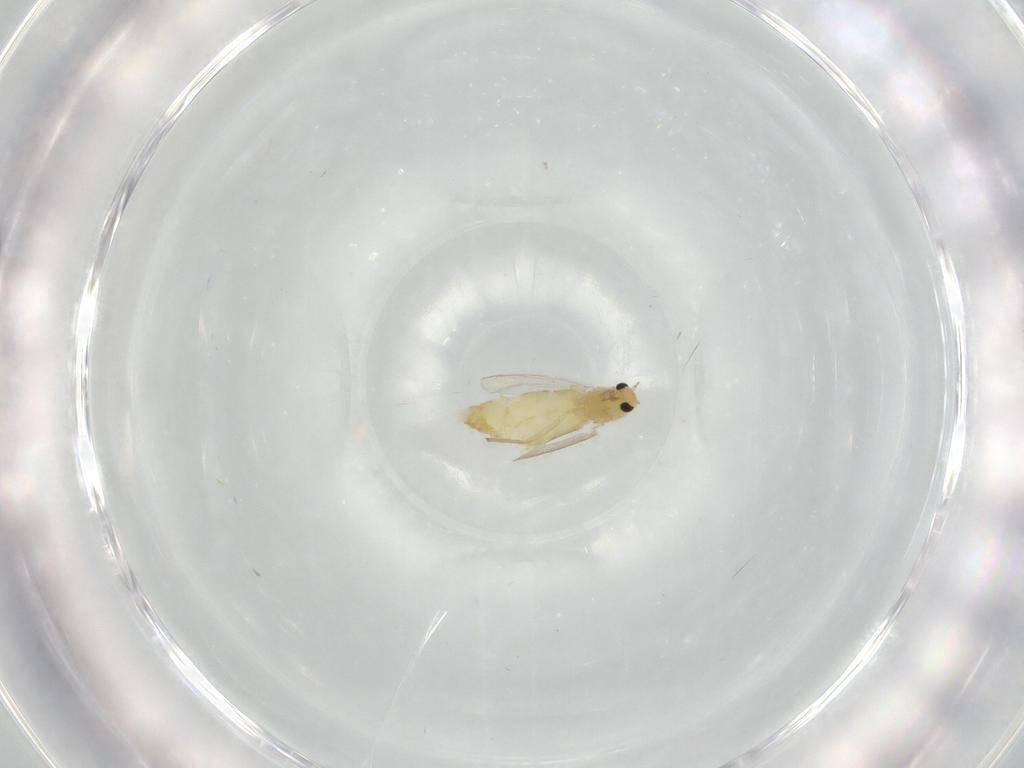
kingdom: Animalia
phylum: Arthropoda
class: Insecta
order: Diptera
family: Chironomidae
